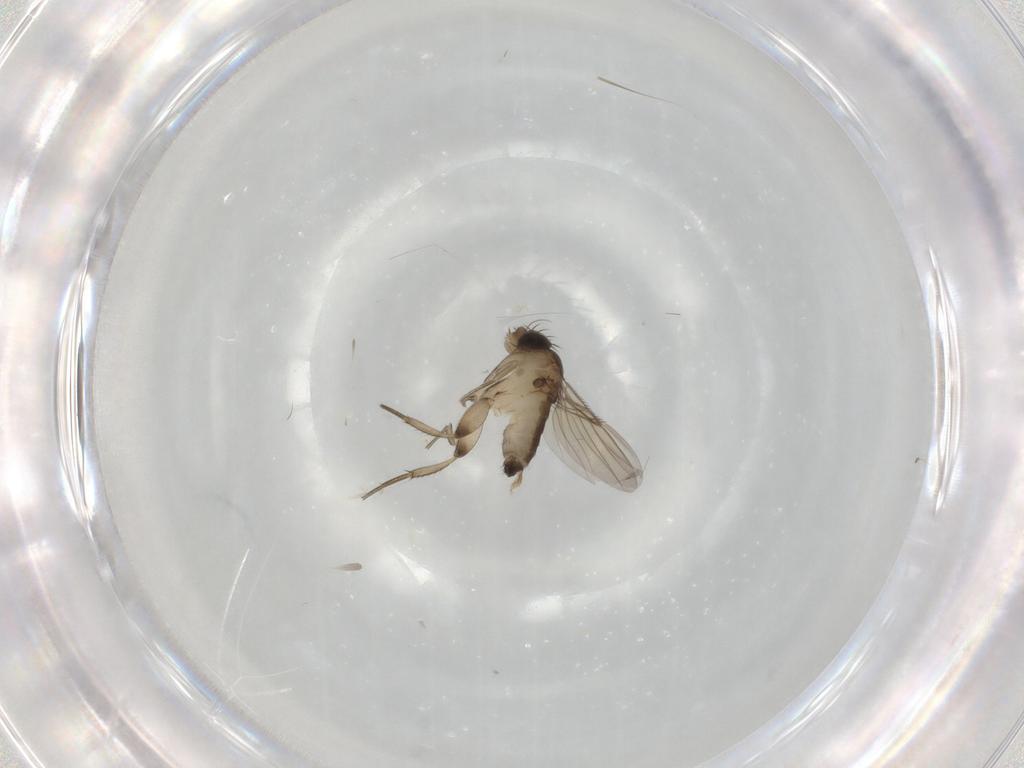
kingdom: Animalia
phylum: Arthropoda
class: Insecta
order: Diptera
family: Phoridae
